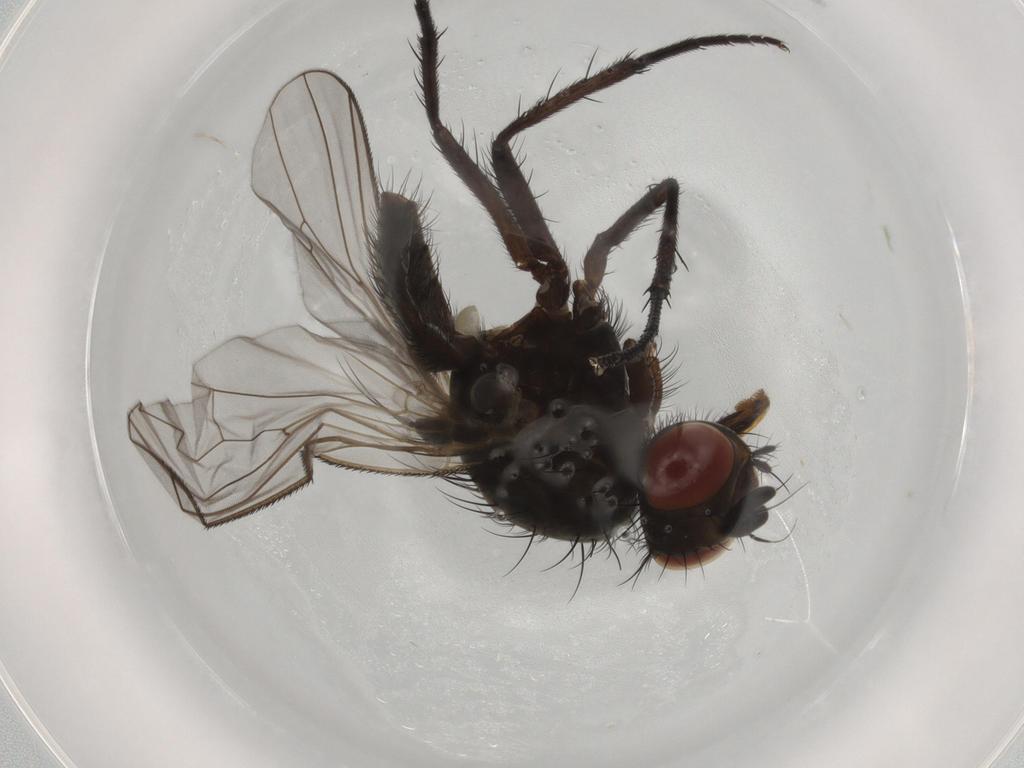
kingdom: Animalia
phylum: Arthropoda
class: Insecta
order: Diptera
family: Anthomyiidae
